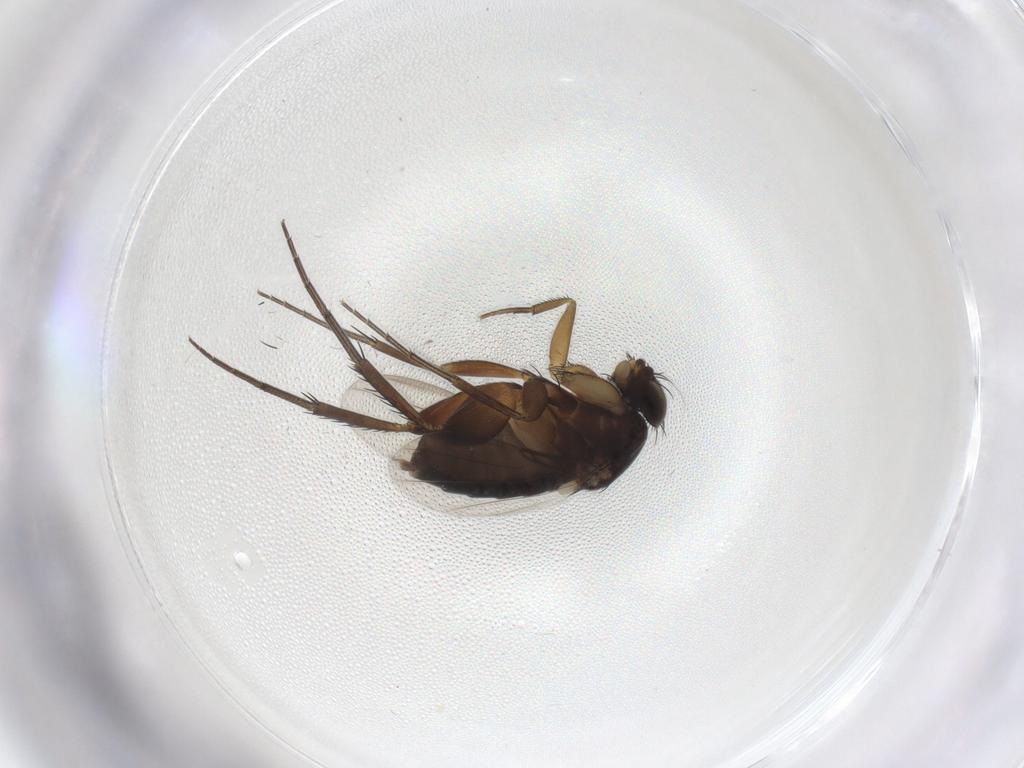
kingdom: Animalia
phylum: Arthropoda
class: Insecta
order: Diptera
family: Phoridae
